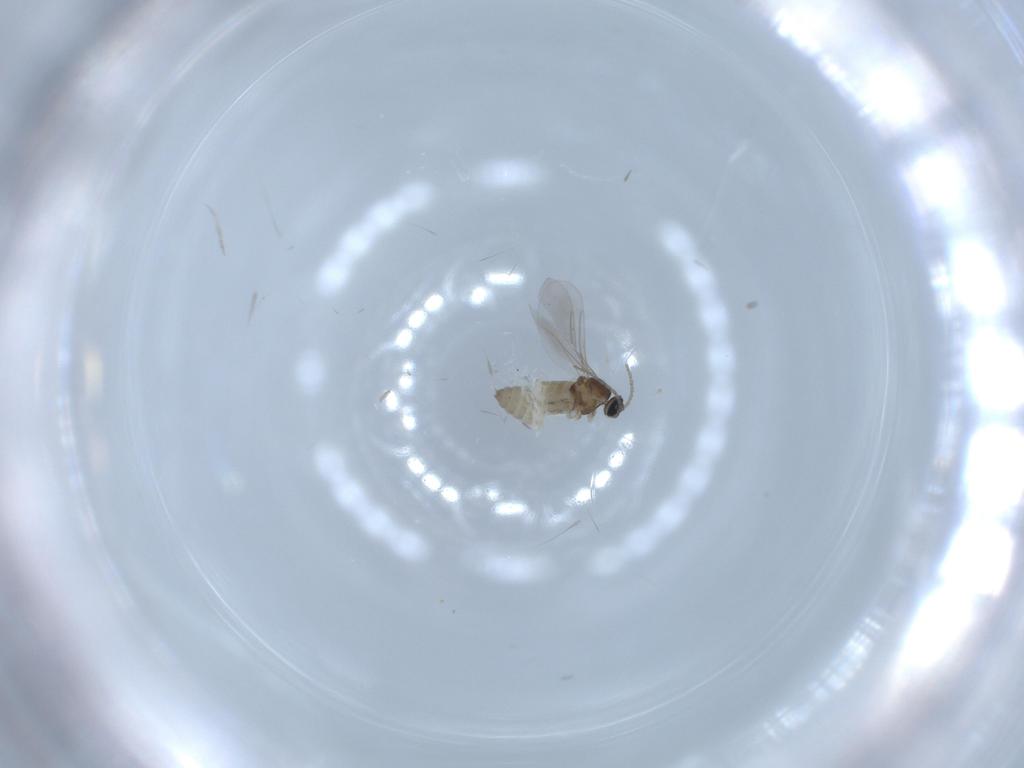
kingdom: Animalia
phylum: Arthropoda
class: Insecta
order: Diptera
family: Cecidomyiidae
